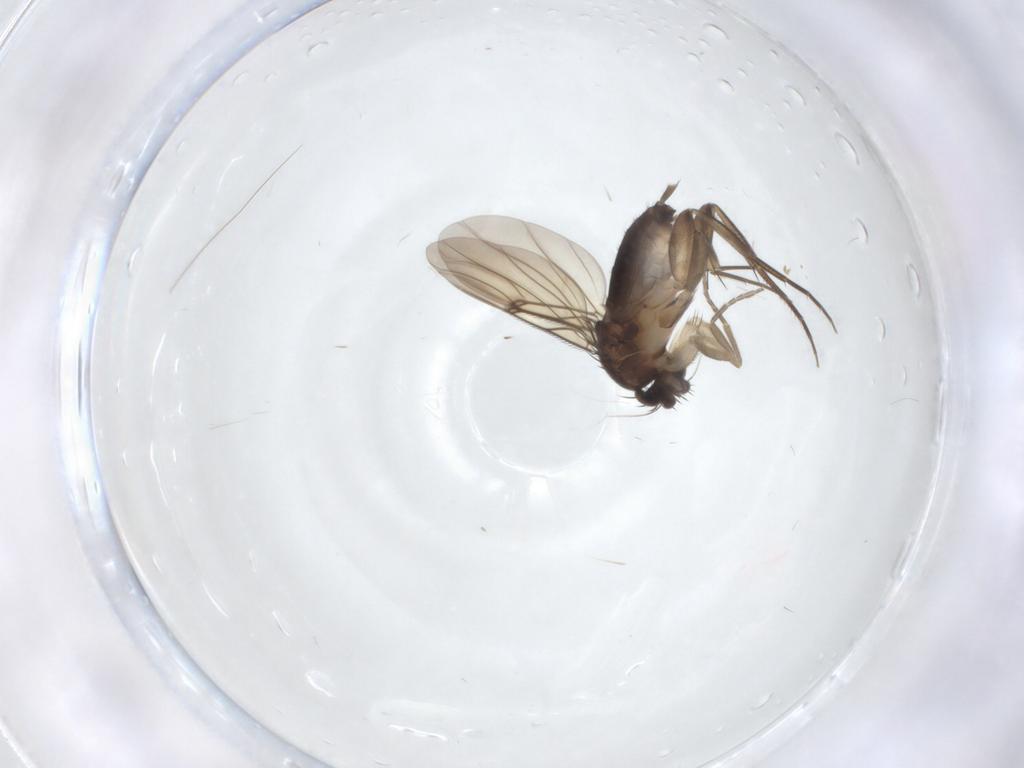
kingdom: Animalia
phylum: Arthropoda
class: Insecta
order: Diptera
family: Phoridae
